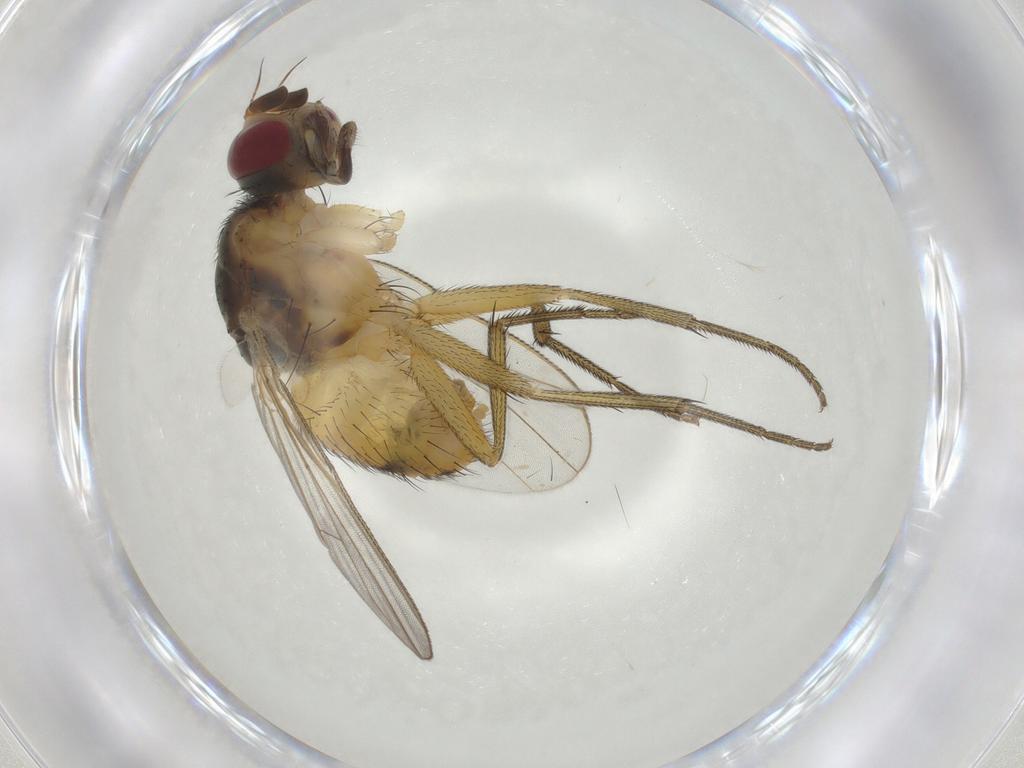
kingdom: Animalia
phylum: Arthropoda
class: Insecta
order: Diptera
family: Muscidae
